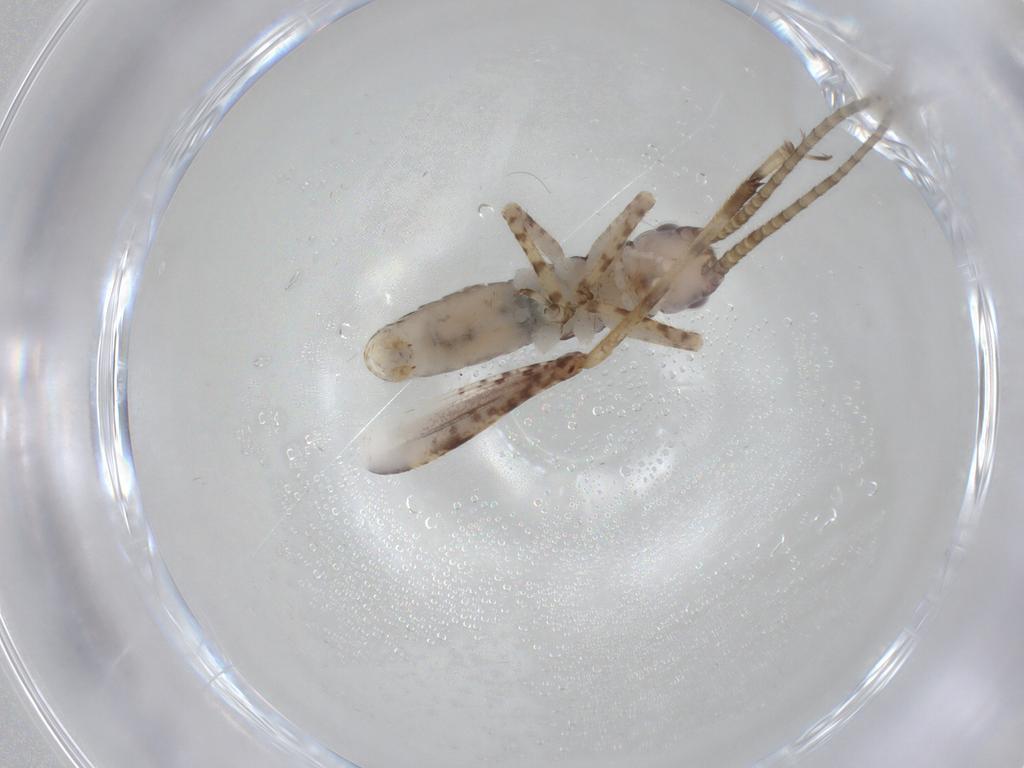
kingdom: Animalia
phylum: Arthropoda
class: Insecta
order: Orthoptera
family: Gryllidae
